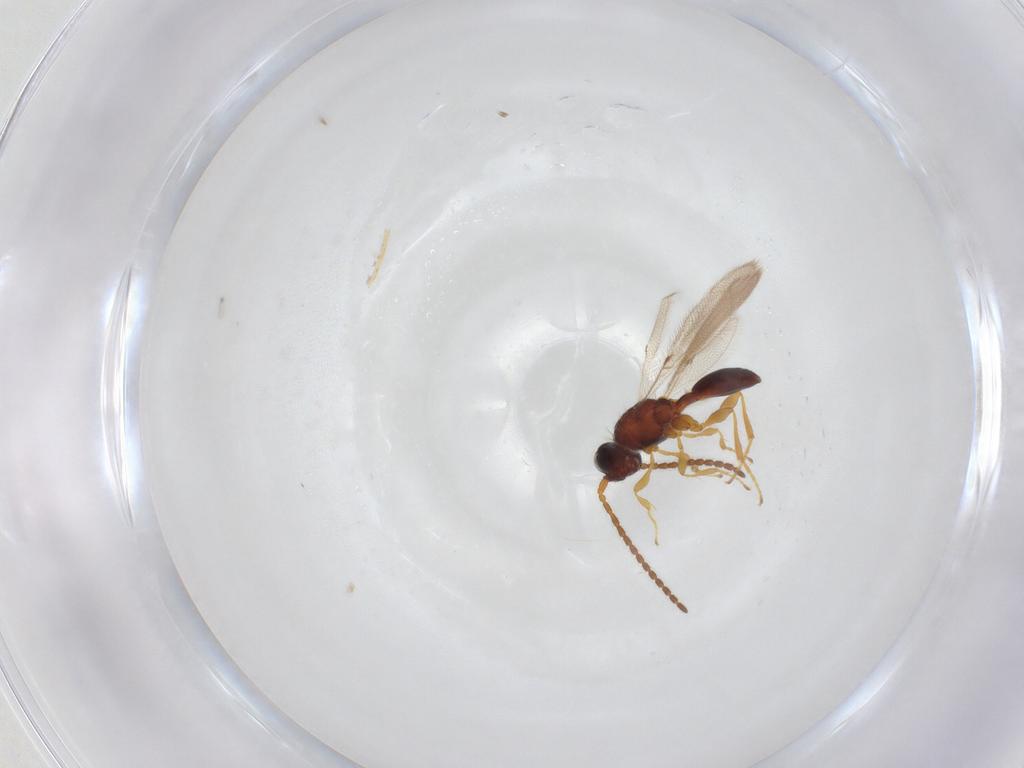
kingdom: Animalia
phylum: Arthropoda
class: Insecta
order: Hymenoptera
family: Diapriidae
